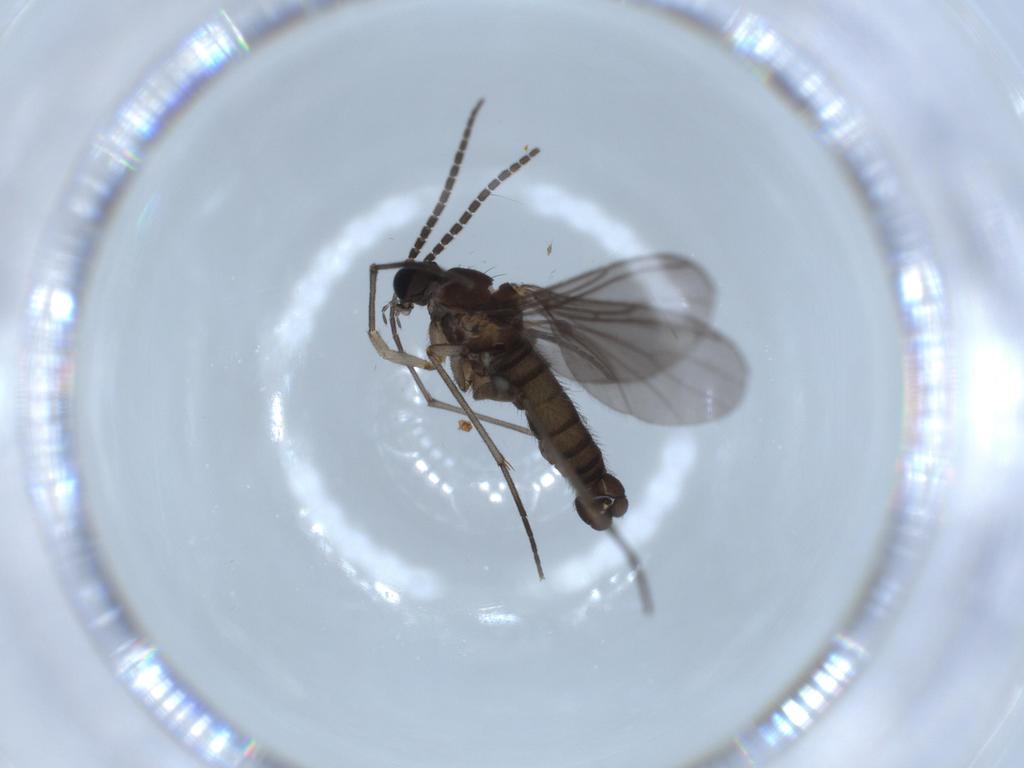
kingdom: Animalia
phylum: Arthropoda
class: Insecta
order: Diptera
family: Sciaridae
